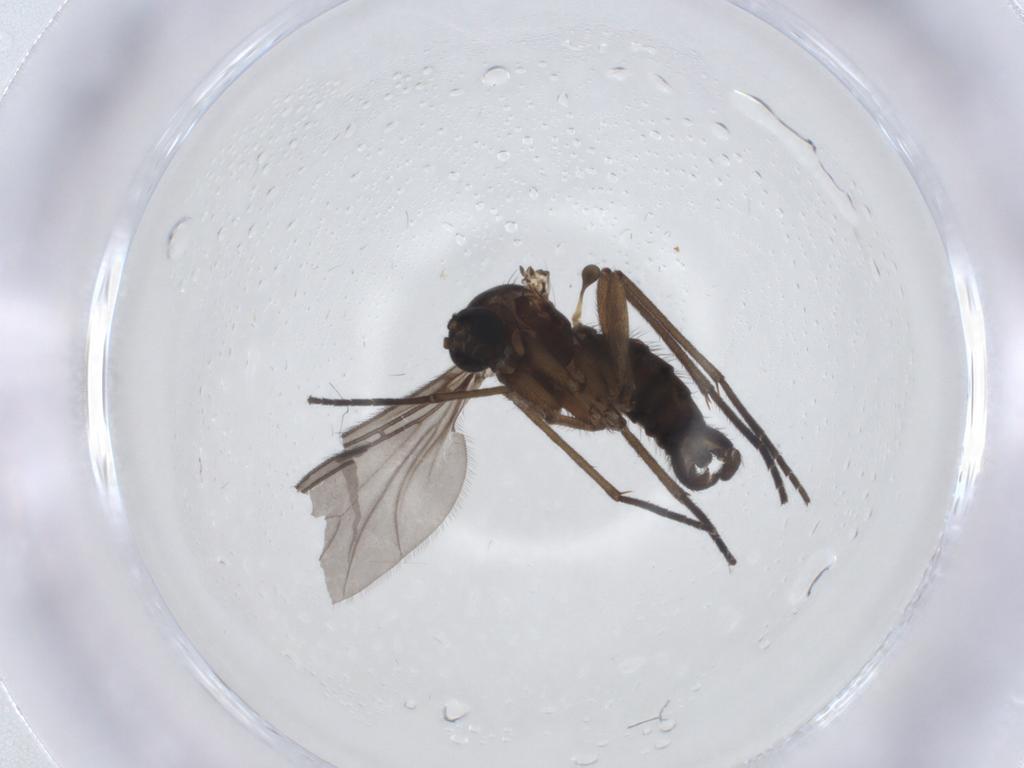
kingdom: Animalia
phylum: Arthropoda
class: Insecta
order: Diptera
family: Sciaridae
